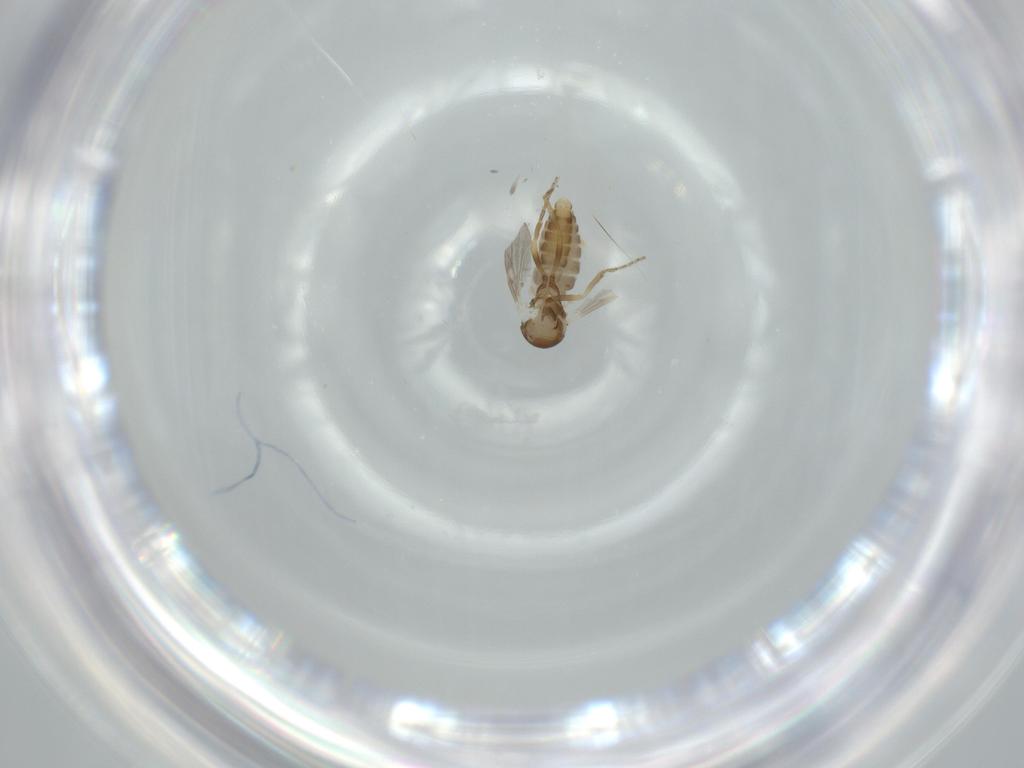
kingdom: Animalia
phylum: Arthropoda
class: Insecta
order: Diptera
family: Ceratopogonidae
